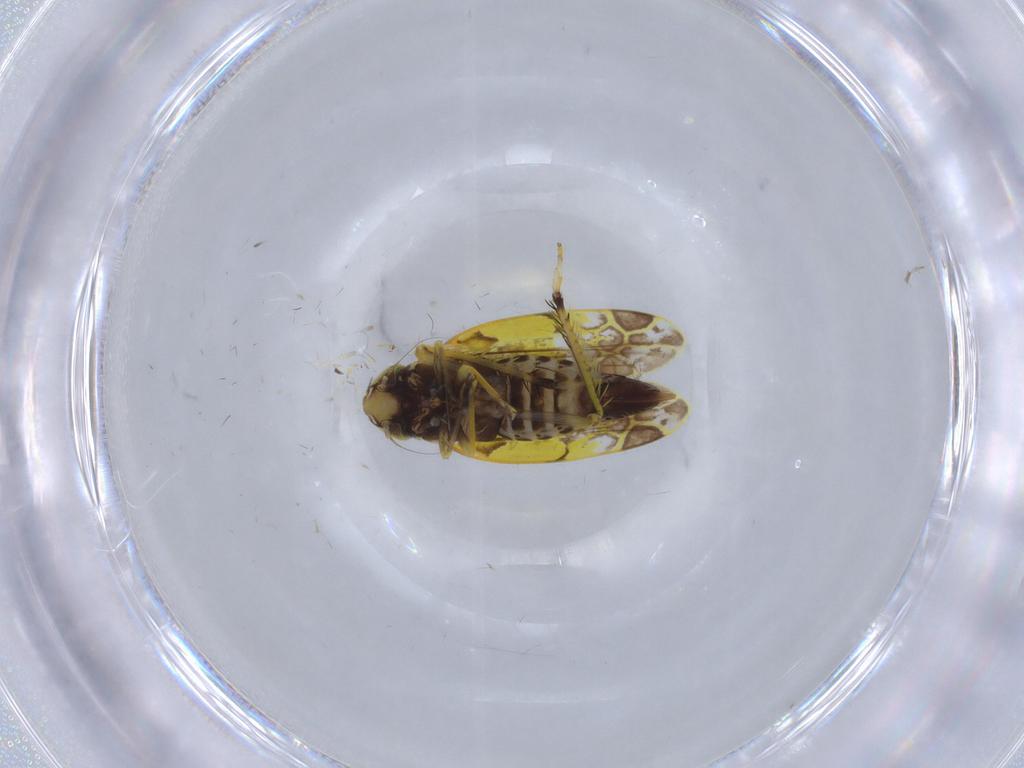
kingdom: Animalia
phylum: Arthropoda
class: Insecta
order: Hemiptera
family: Cicadellidae
